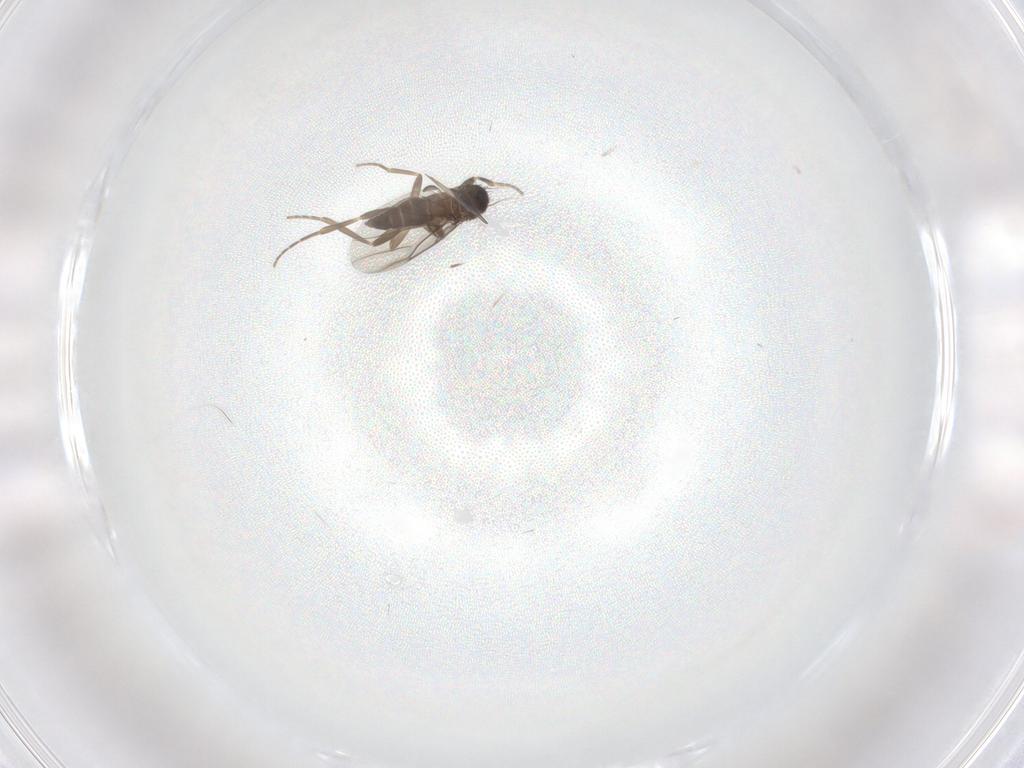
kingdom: Animalia
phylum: Arthropoda
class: Insecta
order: Diptera
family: Phoridae
